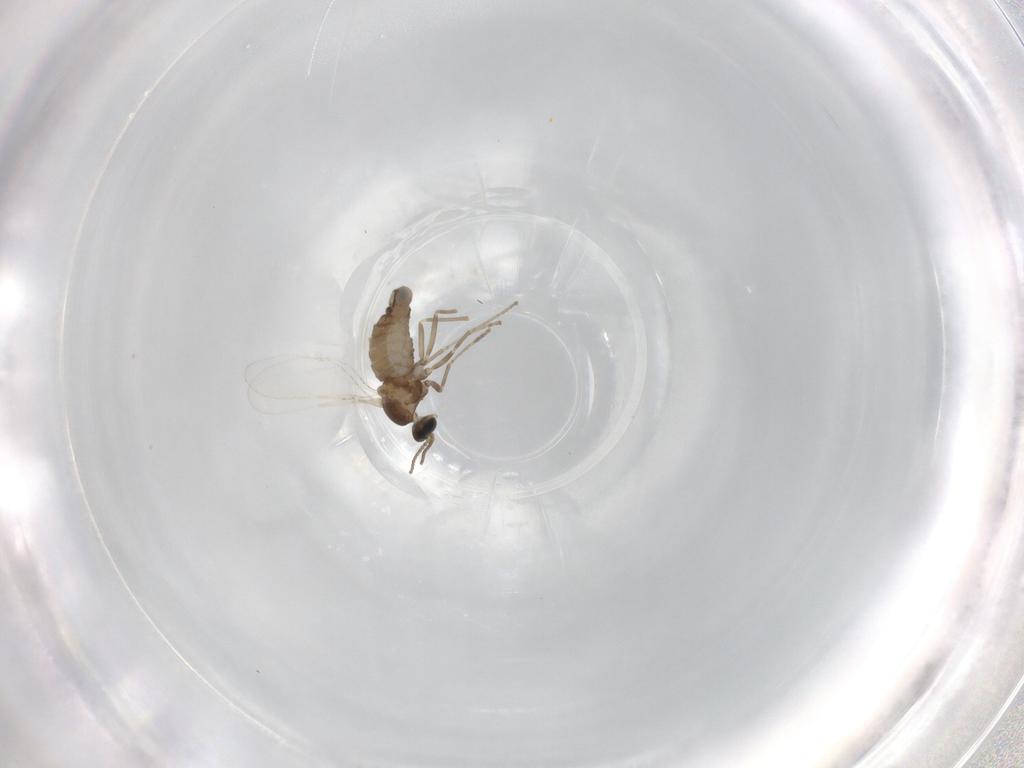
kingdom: Animalia
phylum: Arthropoda
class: Insecta
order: Diptera
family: Cecidomyiidae
